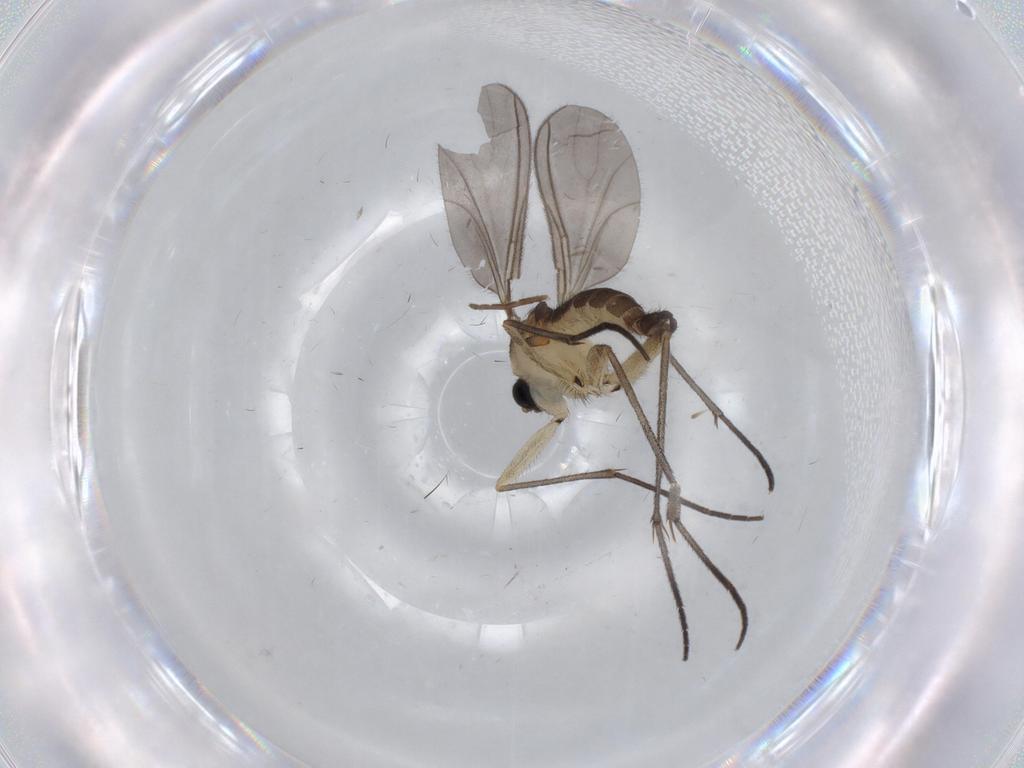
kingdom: Animalia
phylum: Arthropoda
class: Insecta
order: Diptera
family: Sciaridae
